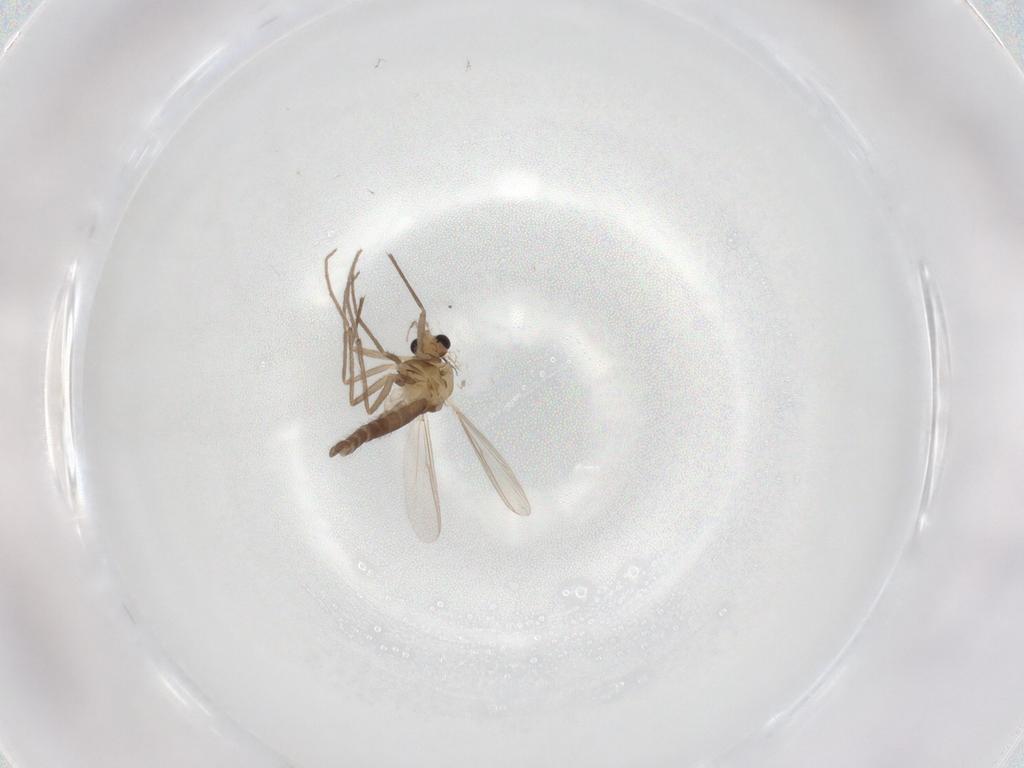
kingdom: Animalia
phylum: Arthropoda
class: Insecta
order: Diptera
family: Chironomidae
